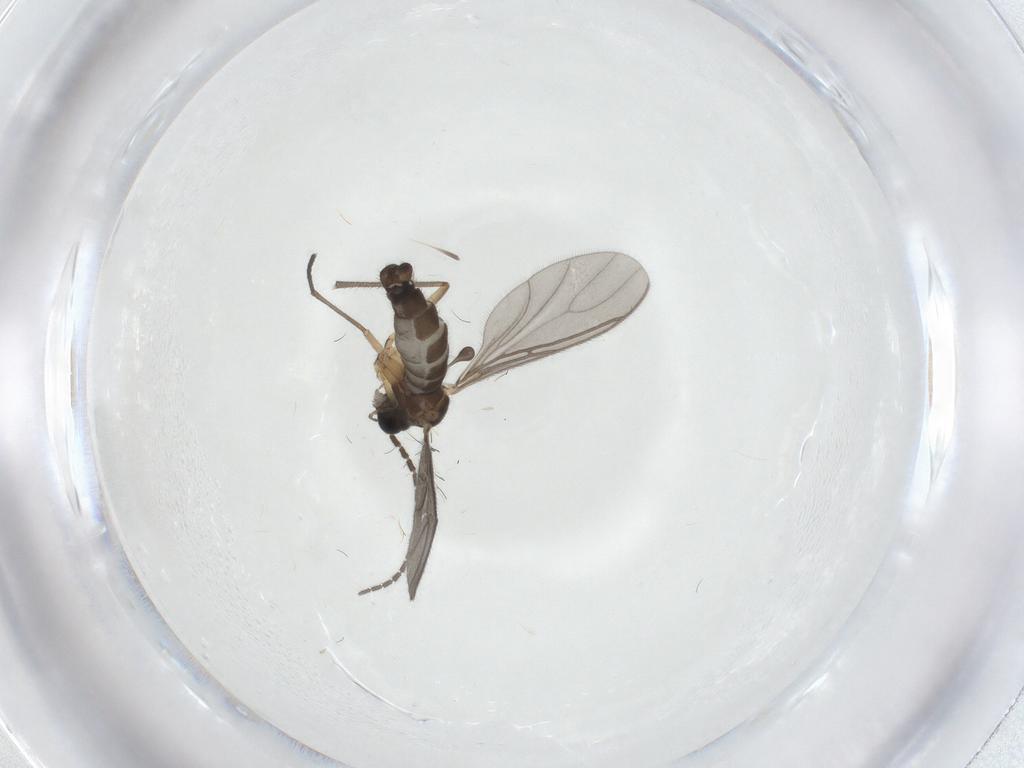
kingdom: Animalia
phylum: Arthropoda
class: Insecta
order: Diptera
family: Sciaridae
